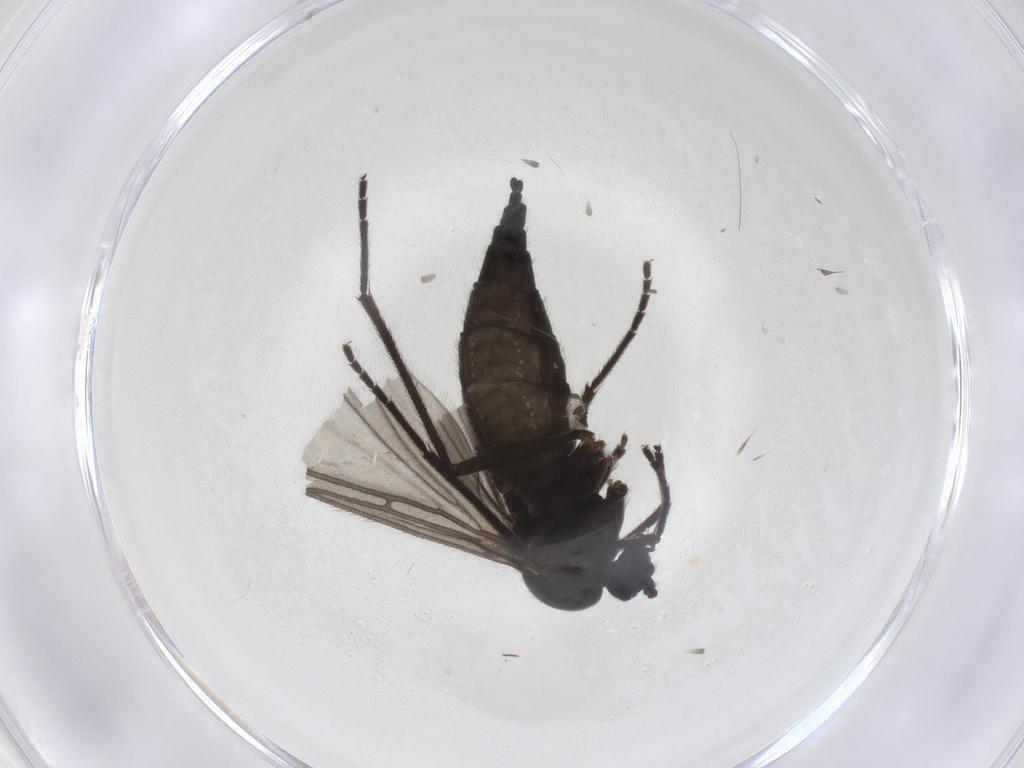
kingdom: Animalia
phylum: Arthropoda
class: Insecta
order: Diptera
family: Sciaridae
